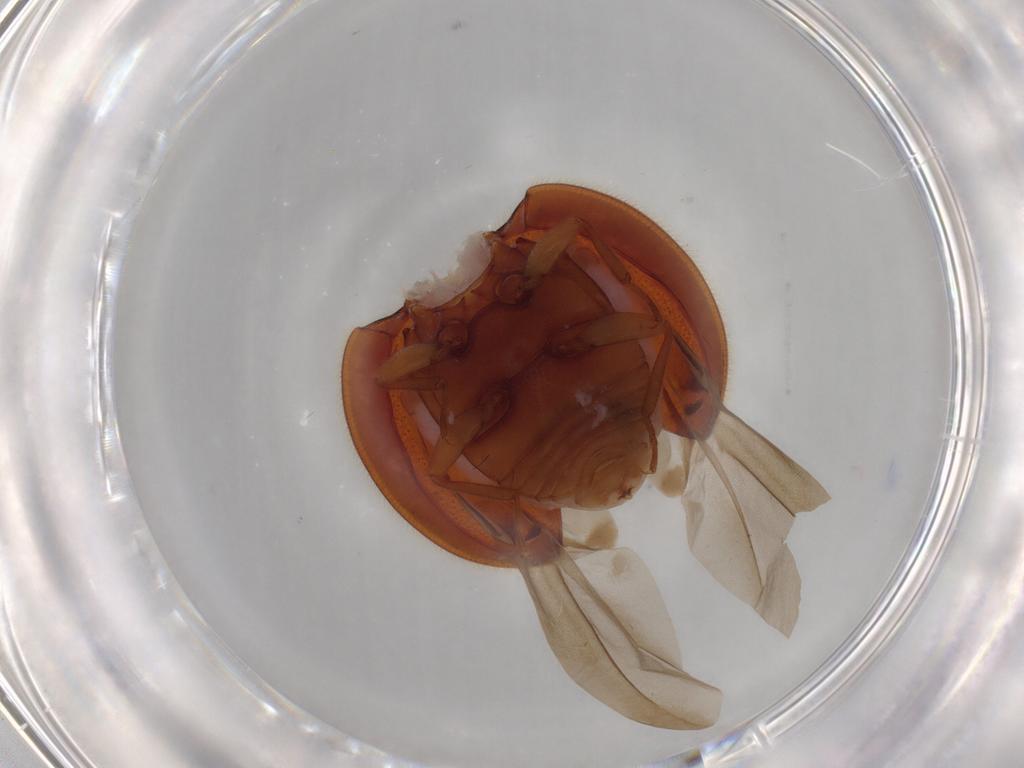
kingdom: Animalia
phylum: Arthropoda
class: Insecta
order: Coleoptera
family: Anamorphidae
